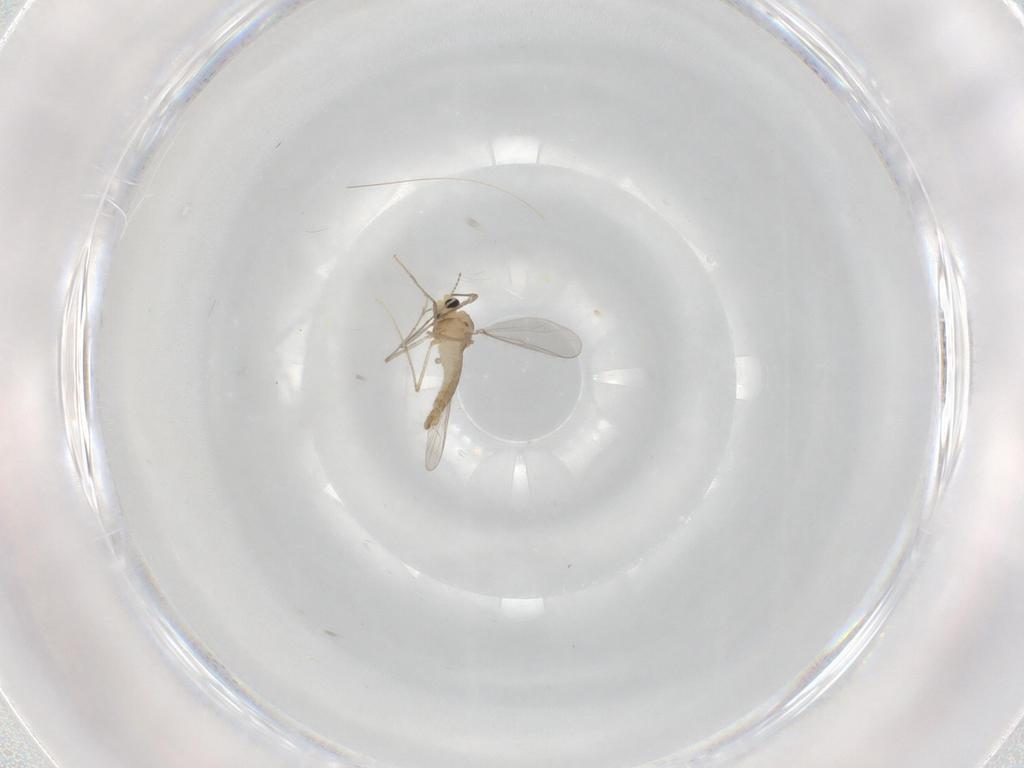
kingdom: Animalia
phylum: Arthropoda
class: Insecta
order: Diptera
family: Chironomidae
